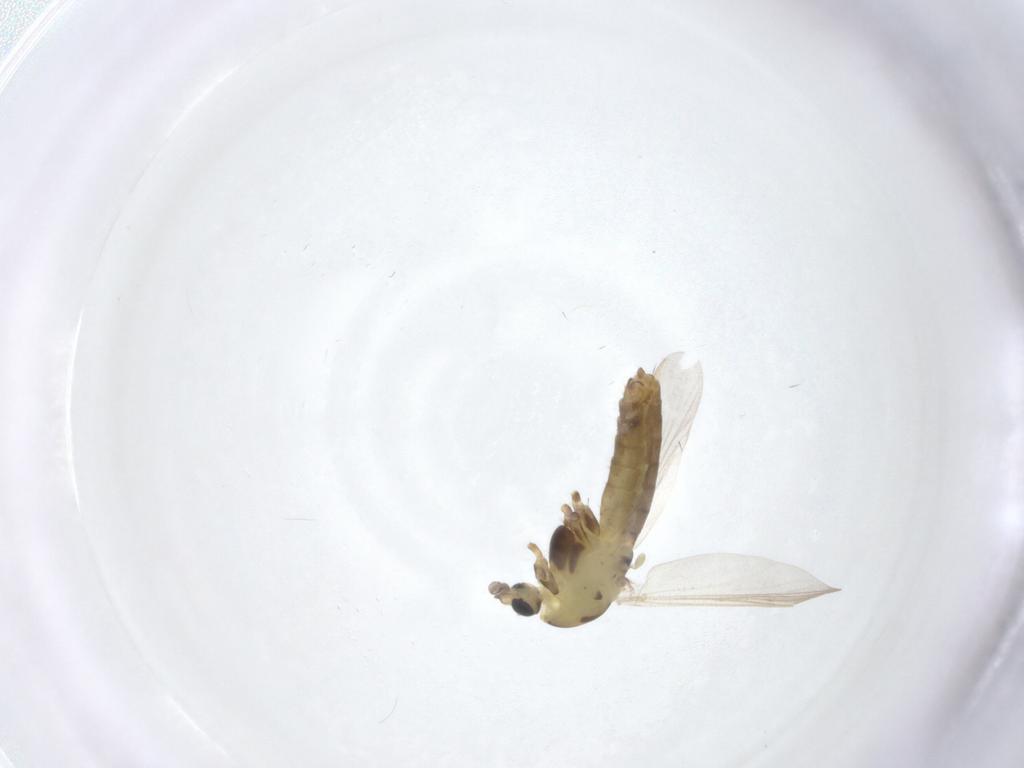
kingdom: Animalia
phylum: Arthropoda
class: Insecta
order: Diptera
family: Chironomidae
